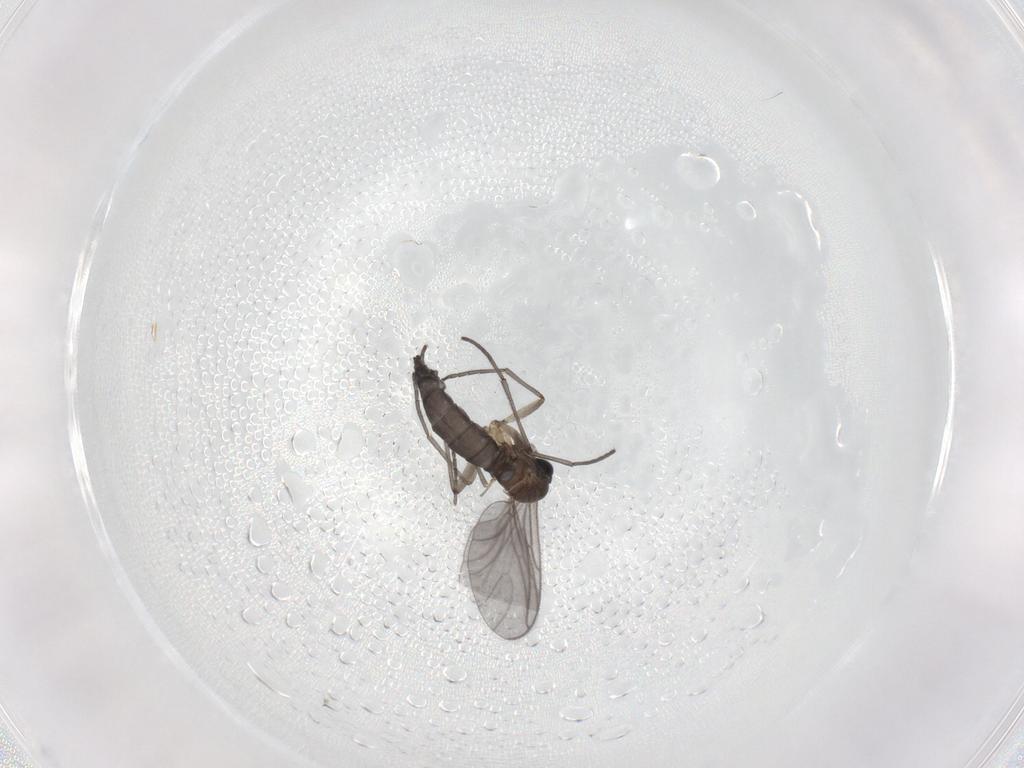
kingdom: Animalia
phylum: Arthropoda
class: Insecta
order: Diptera
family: Sciaridae
